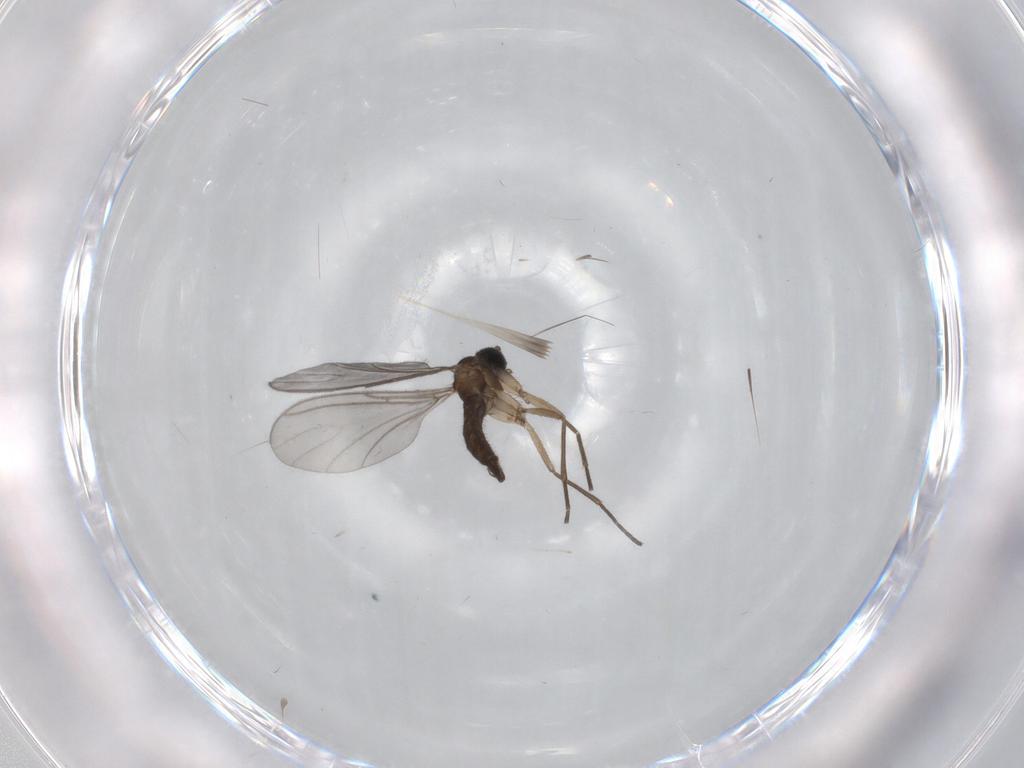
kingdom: Animalia
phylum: Arthropoda
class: Insecta
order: Diptera
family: Sciaridae
